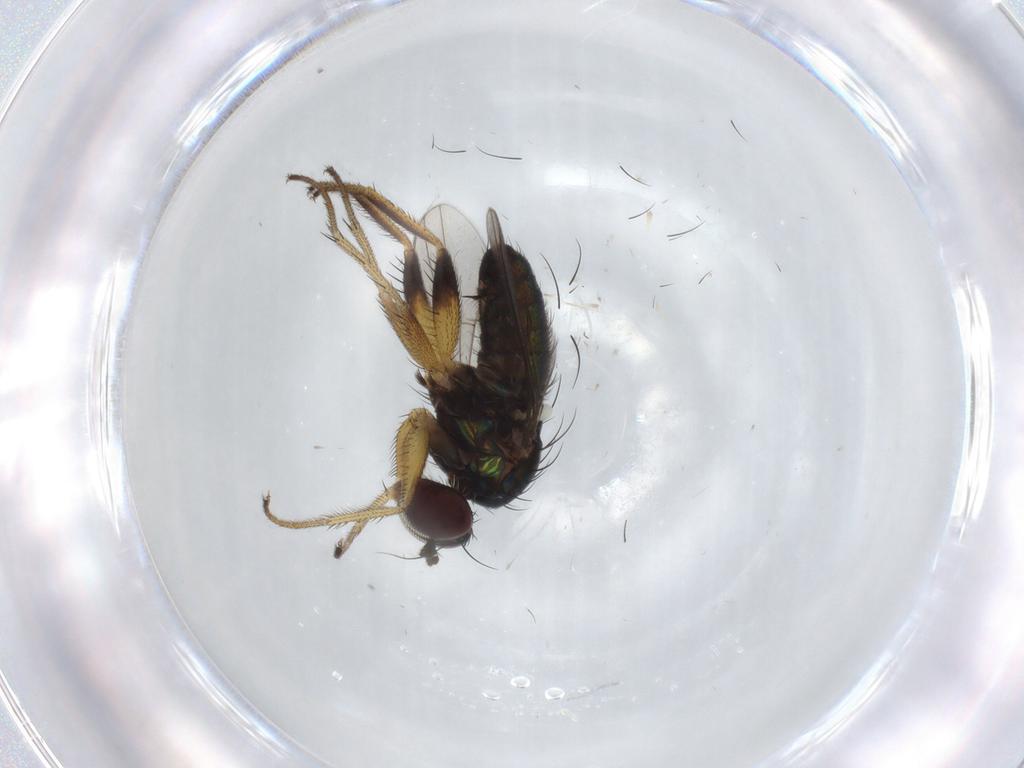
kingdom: Animalia
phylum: Arthropoda
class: Insecta
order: Diptera
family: Dolichopodidae
